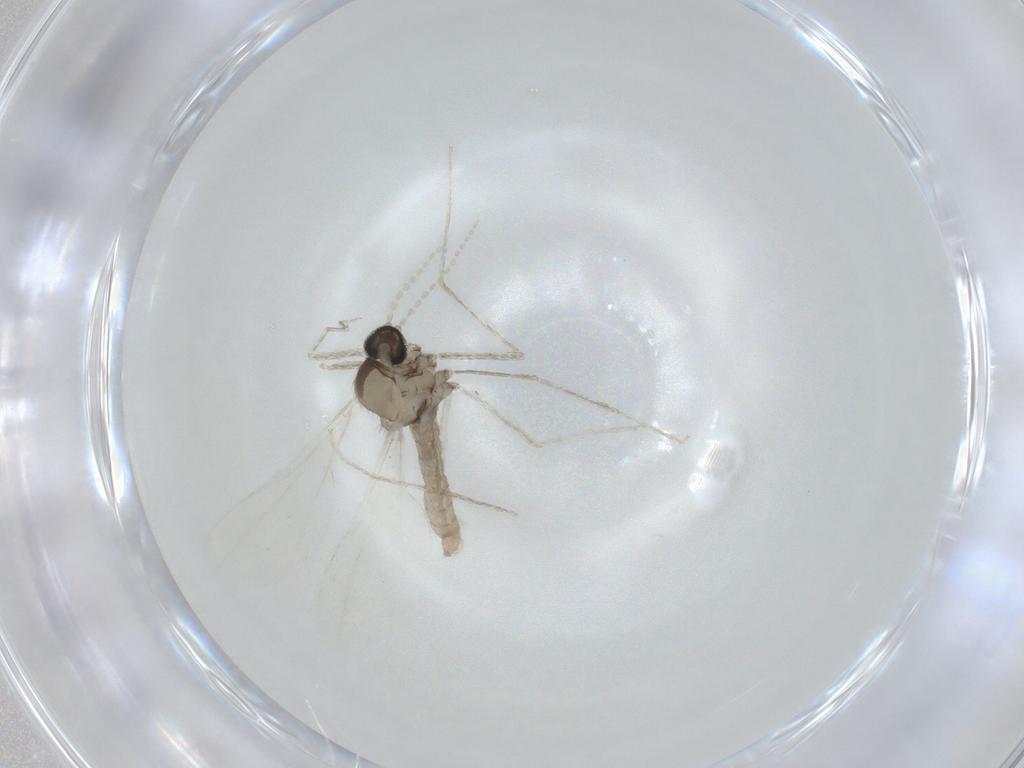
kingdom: Animalia
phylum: Arthropoda
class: Insecta
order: Diptera
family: Cecidomyiidae
